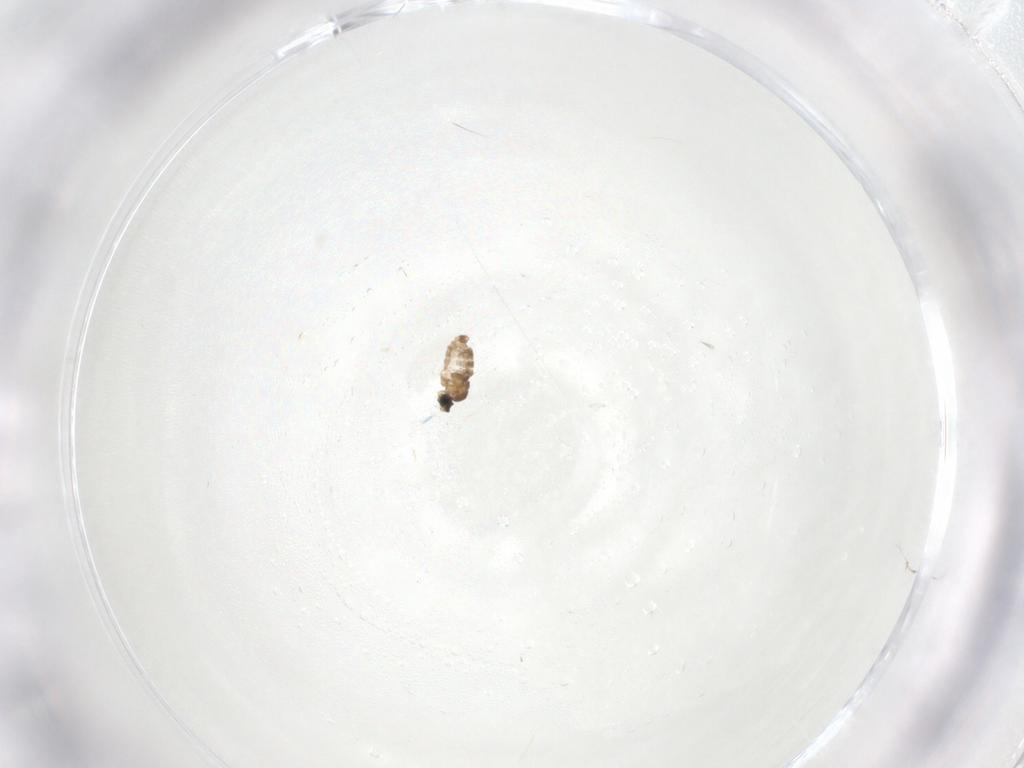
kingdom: Animalia
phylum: Arthropoda
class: Insecta
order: Diptera
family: Cecidomyiidae
